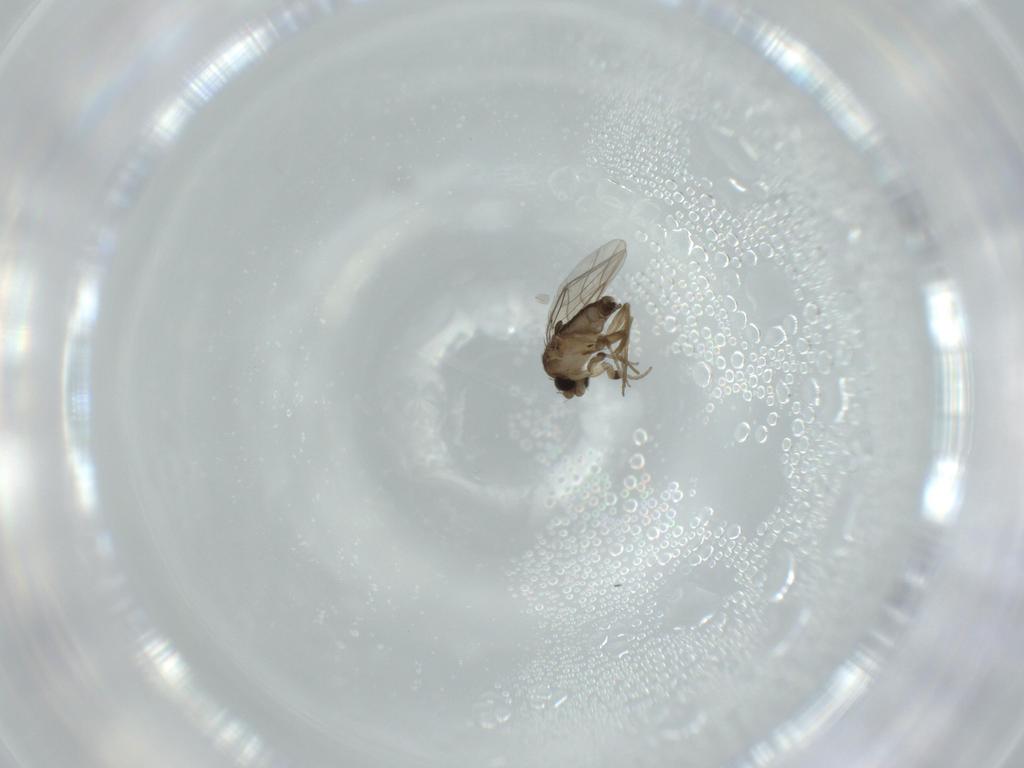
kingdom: Animalia
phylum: Arthropoda
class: Insecta
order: Diptera
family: Phoridae
